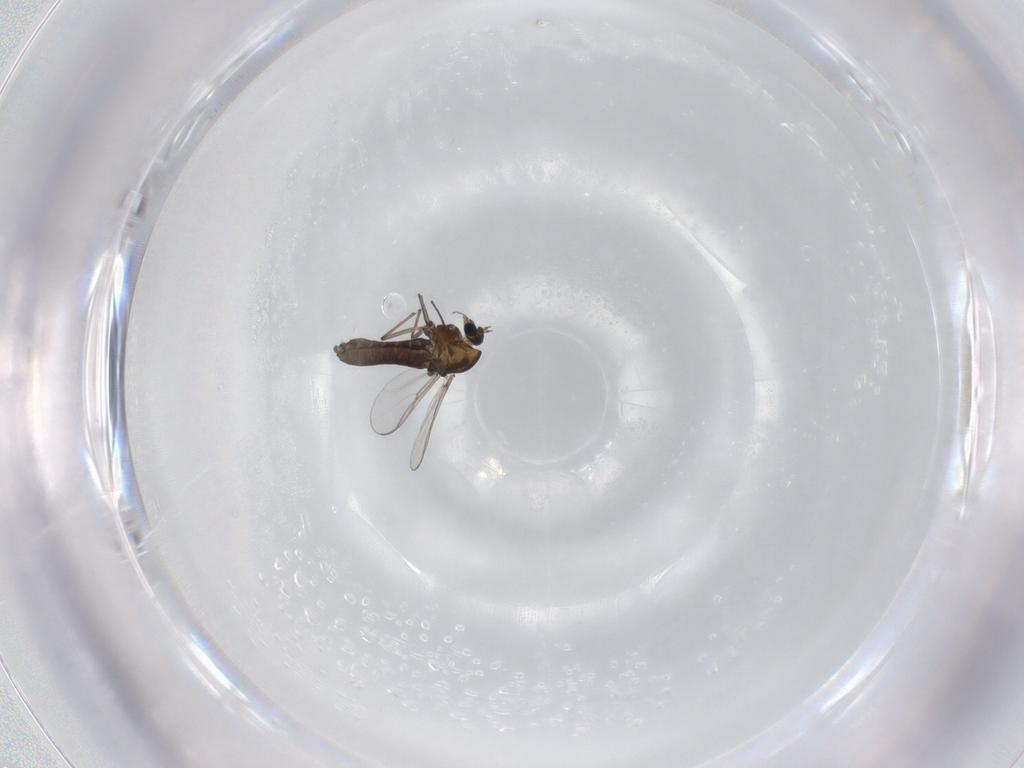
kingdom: Animalia
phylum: Arthropoda
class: Insecta
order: Diptera
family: Chironomidae
